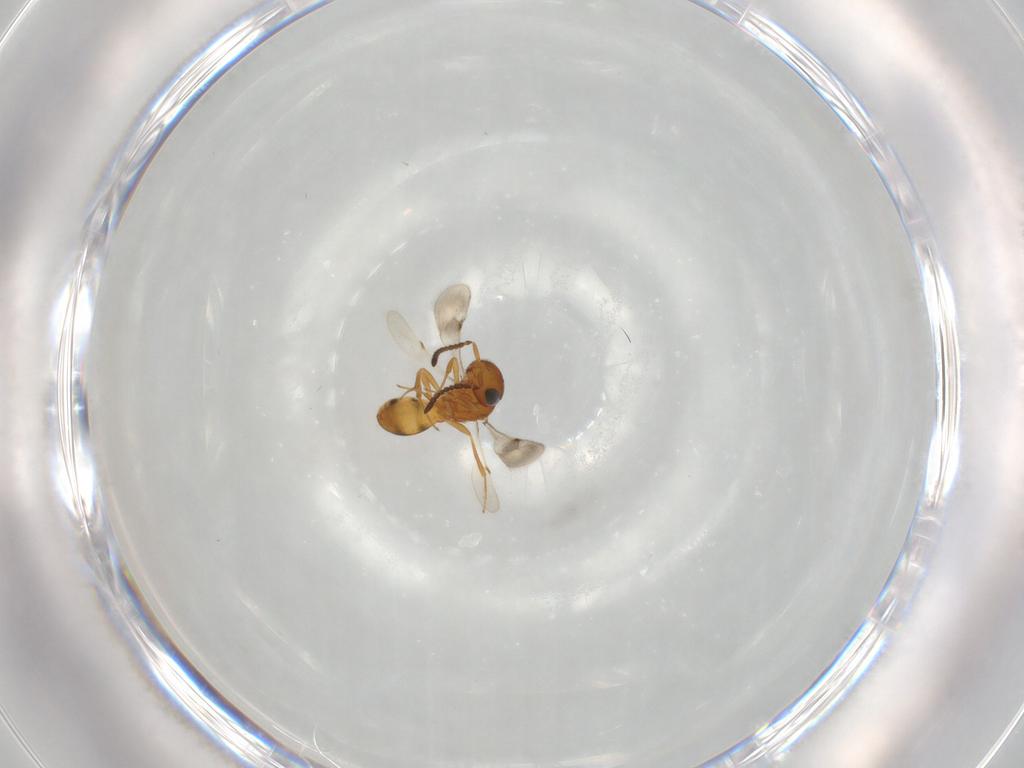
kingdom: Animalia
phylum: Arthropoda
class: Insecta
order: Hymenoptera
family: Scelionidae
